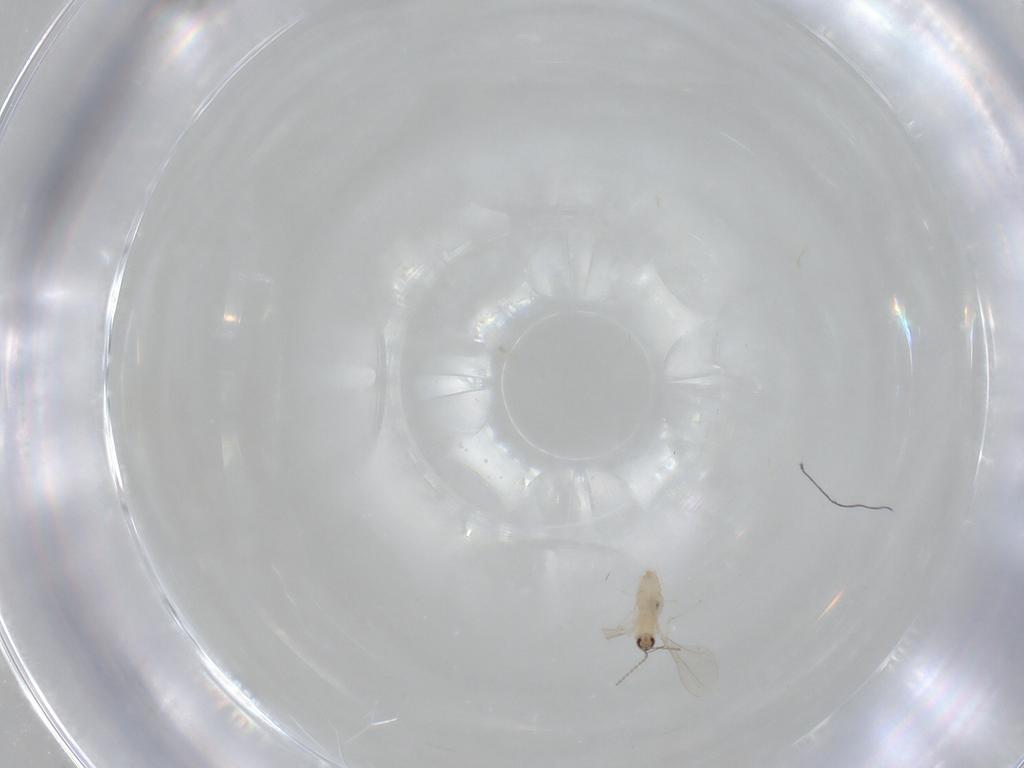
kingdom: Animalia
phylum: Arthropoda
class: Insecta
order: Diptera
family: Cecidomyiidae
